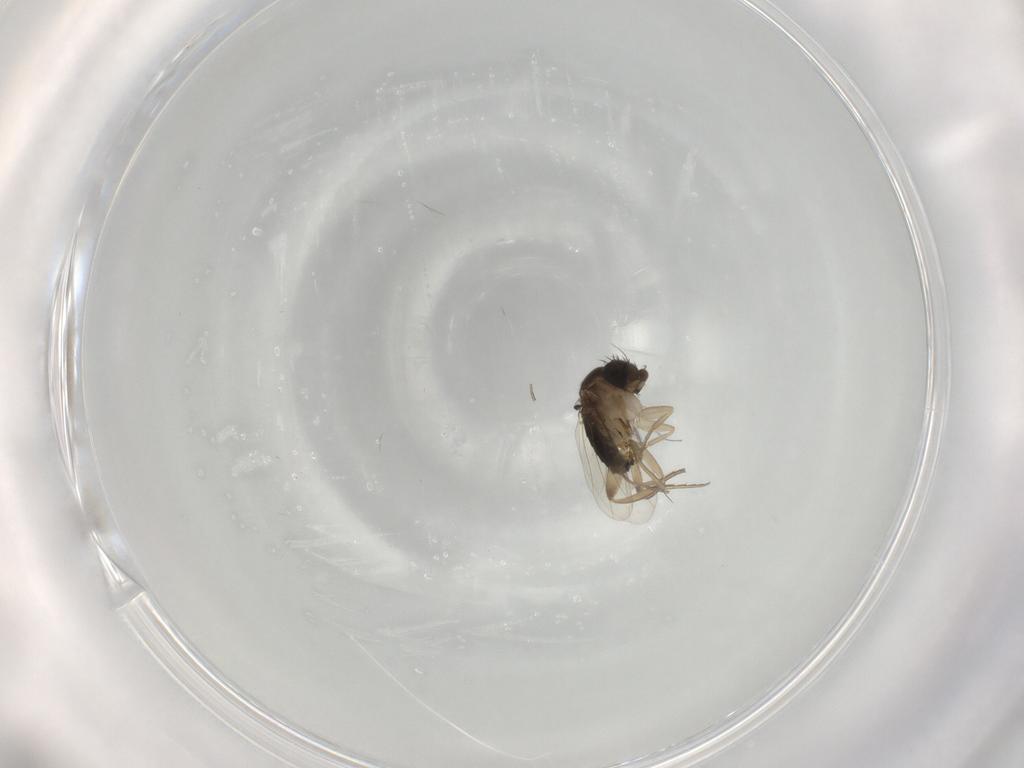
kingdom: Animalia
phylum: Arthropoda
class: Insecta
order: Diptera
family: Phoridae
